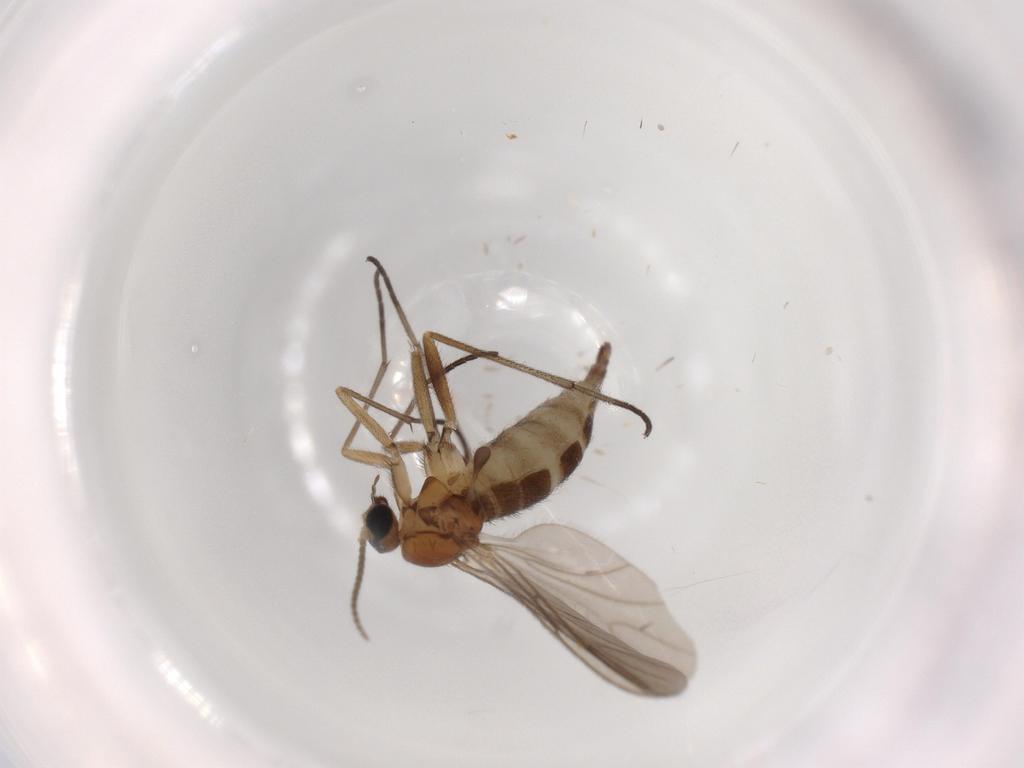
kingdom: Animalia
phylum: Arthropoda
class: Insecta
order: Diptera
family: Sciaridae
